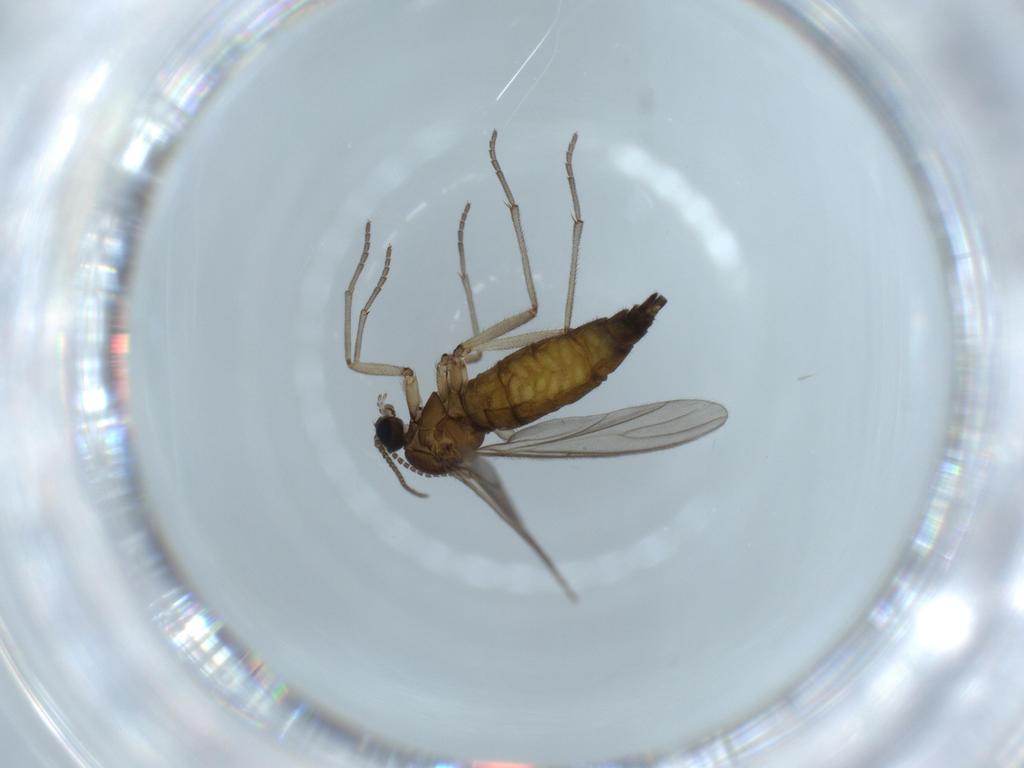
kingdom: Animalia
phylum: Arthropoda
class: Insecta
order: Diptera
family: Sciaridae
